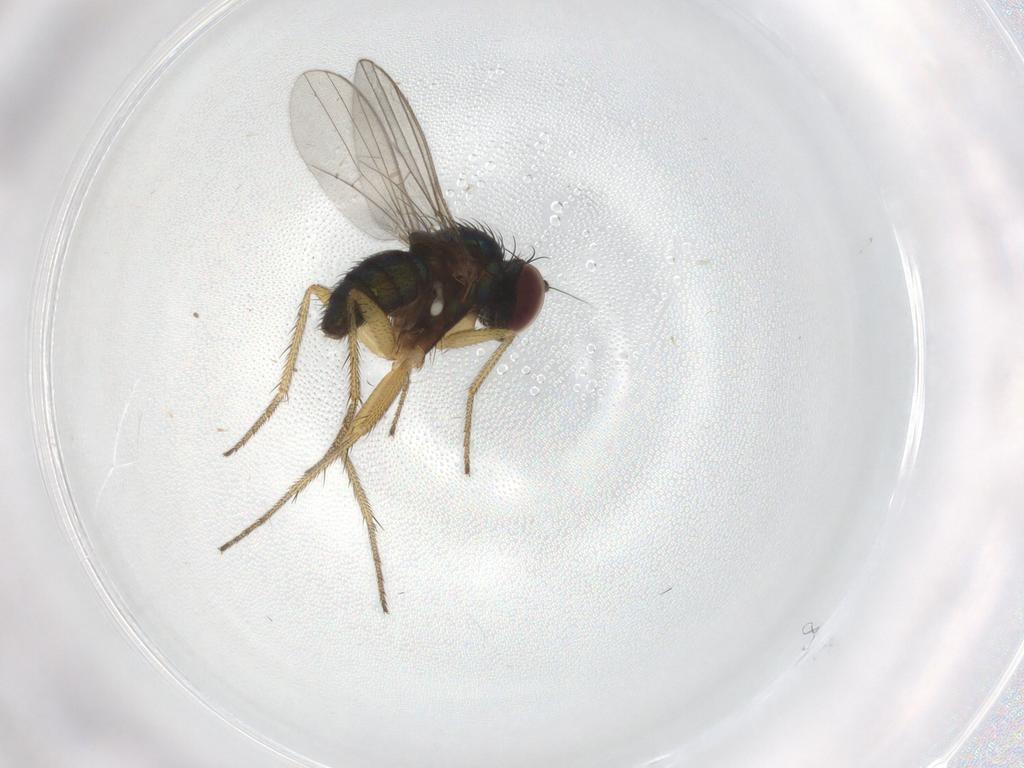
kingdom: Animalia
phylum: Arthropoda
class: Insecta
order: Diptera
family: Dolichopodidae
